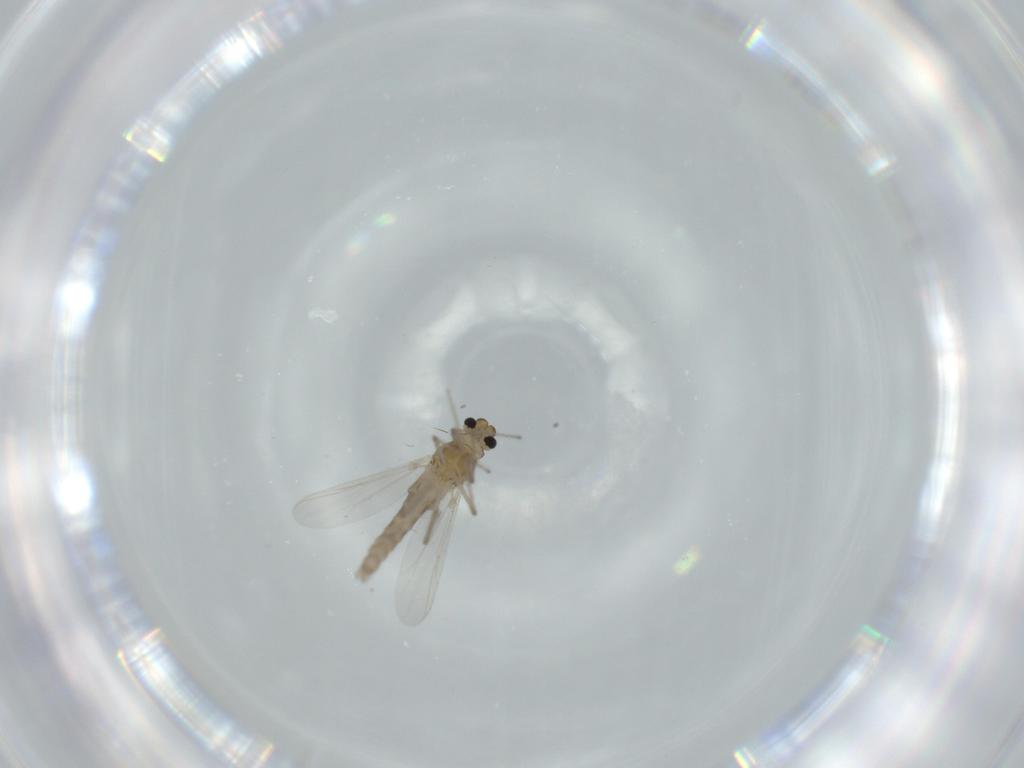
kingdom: Animalia
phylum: Arthropoda
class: Insecta
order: Diptera
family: Chironomidae
